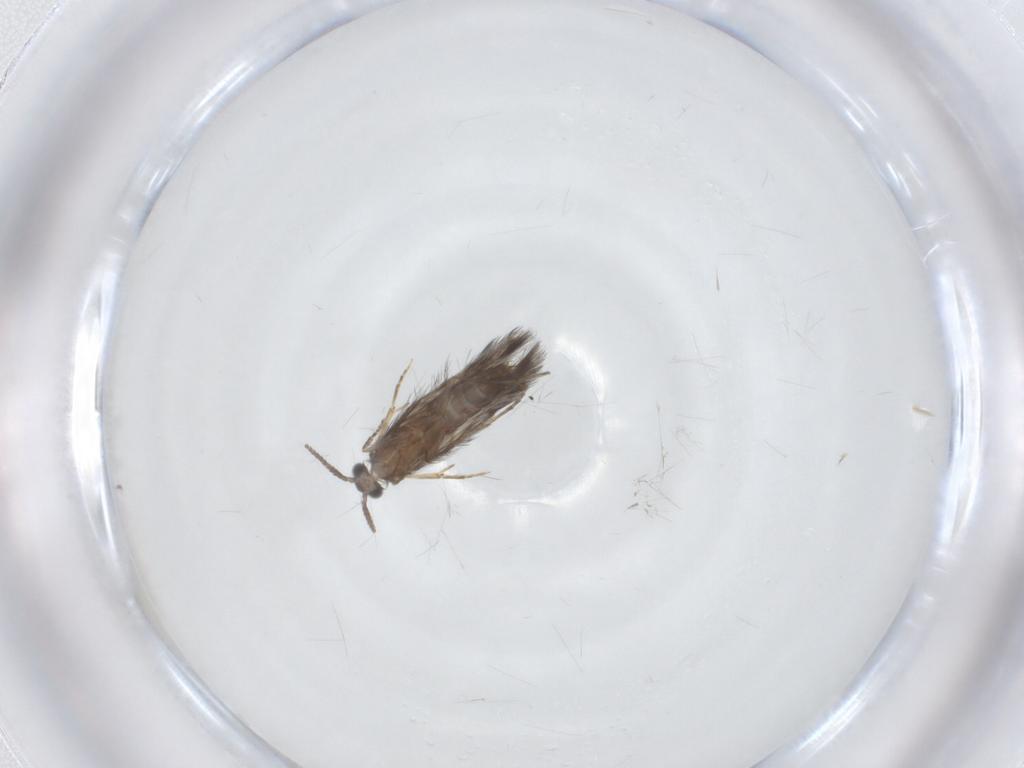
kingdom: Animalia
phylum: Arthropoda
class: Insecta
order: Trichoptera
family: Hydroptilidae
